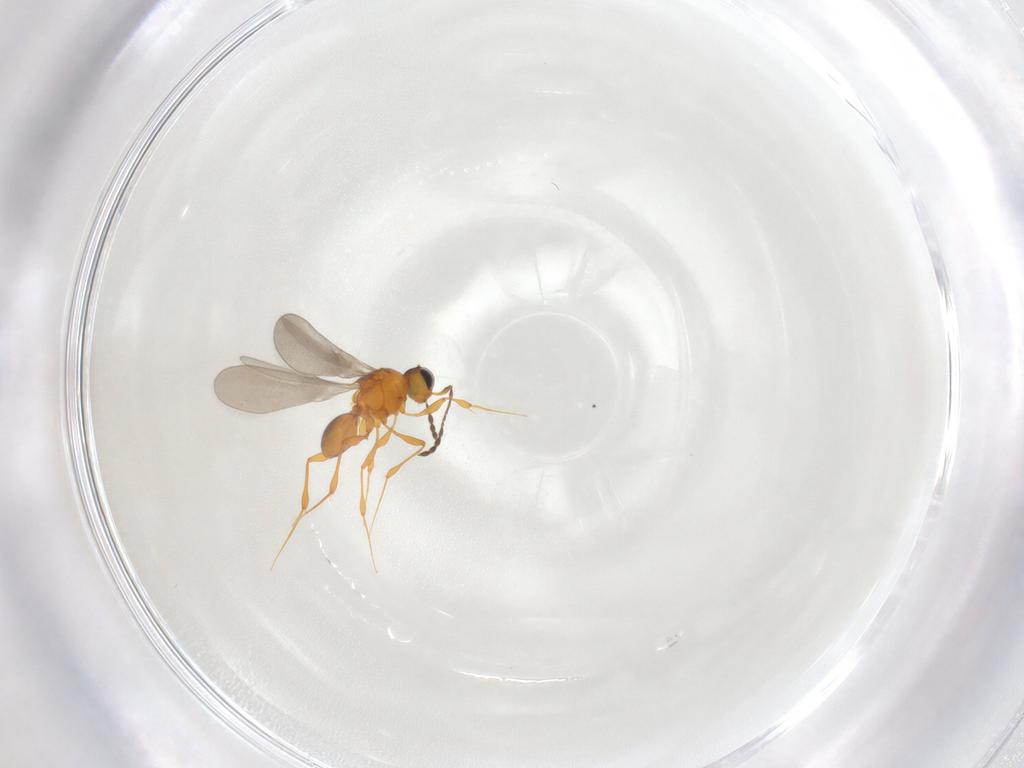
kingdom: Animalia
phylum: Arthropoda
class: Insecta
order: Hymenoptera
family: Platygastridae
